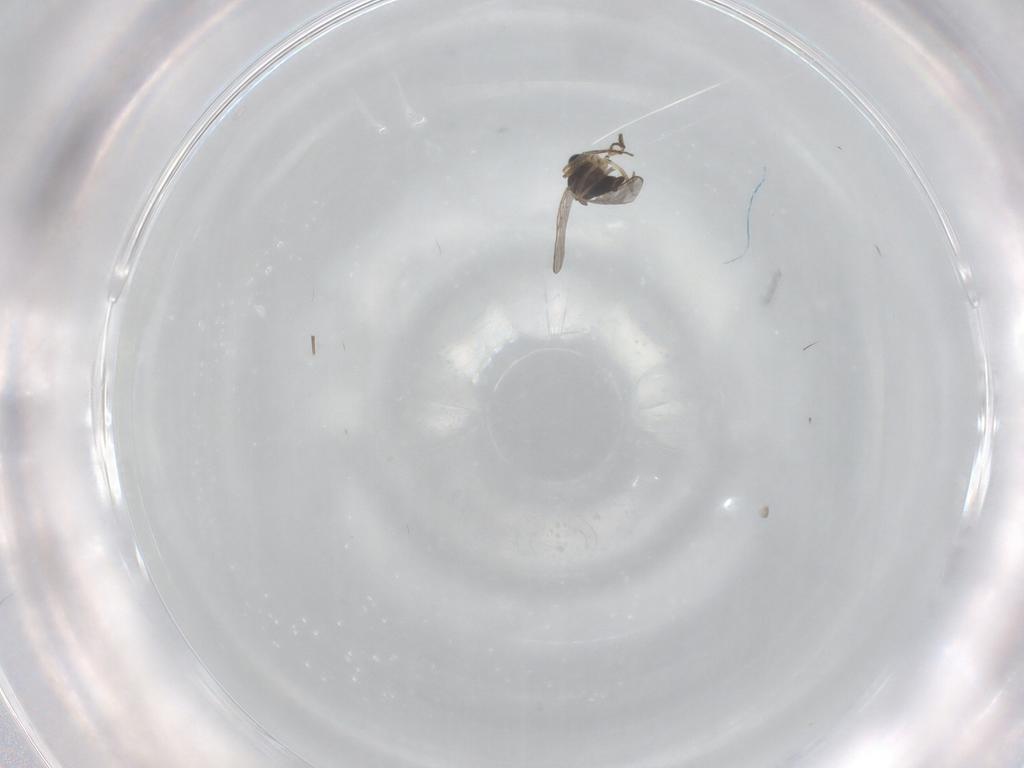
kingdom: Animalia
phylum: Arthropoda
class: Insecta
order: Diptera
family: Sciaridae
